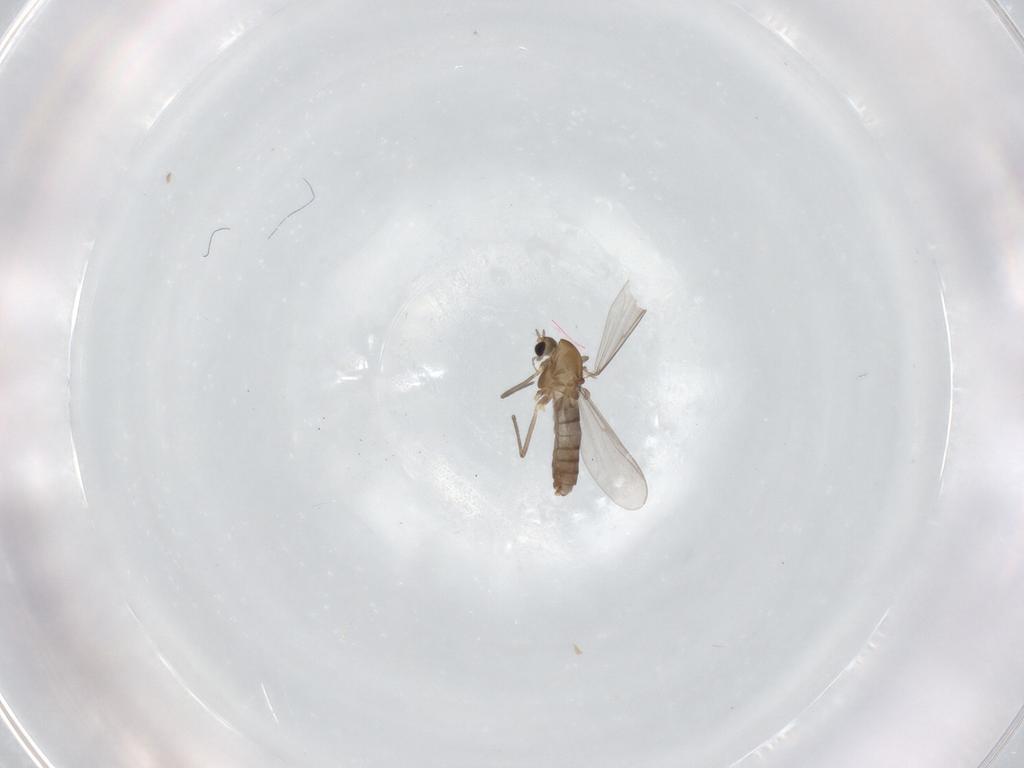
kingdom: Animalia
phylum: Arthropoda
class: Insecta
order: Diptera
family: Chironomidae
